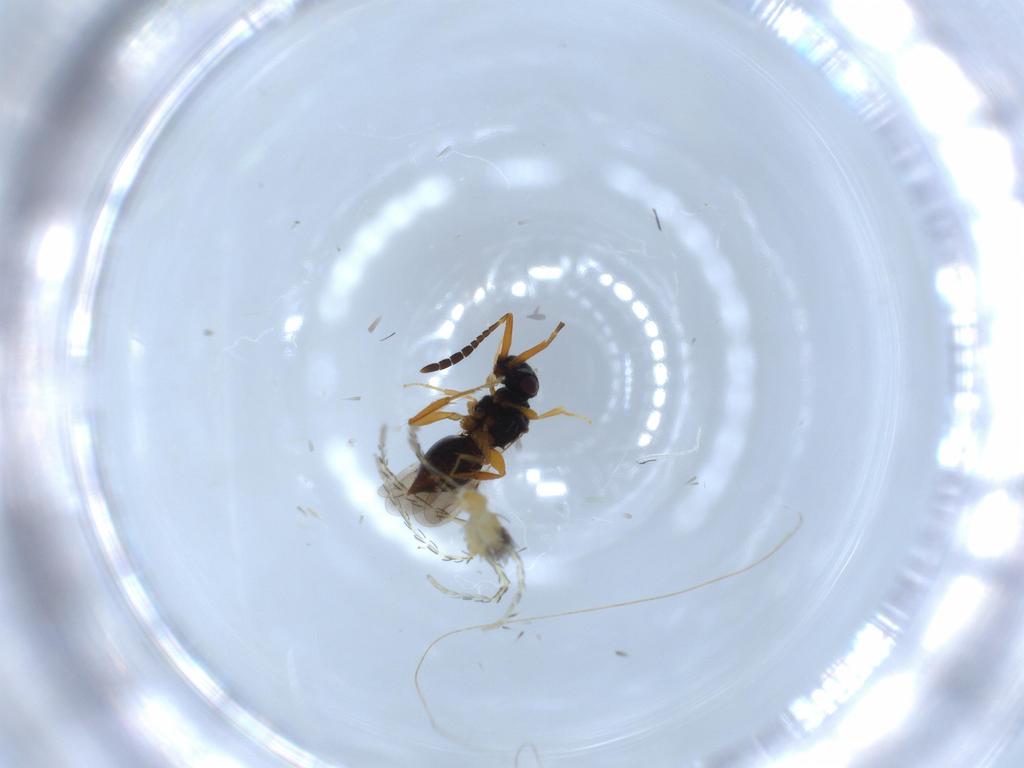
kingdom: Animalia
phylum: Arthropoda
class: Arachnida
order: Trombidiformes
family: Erythraeidae
